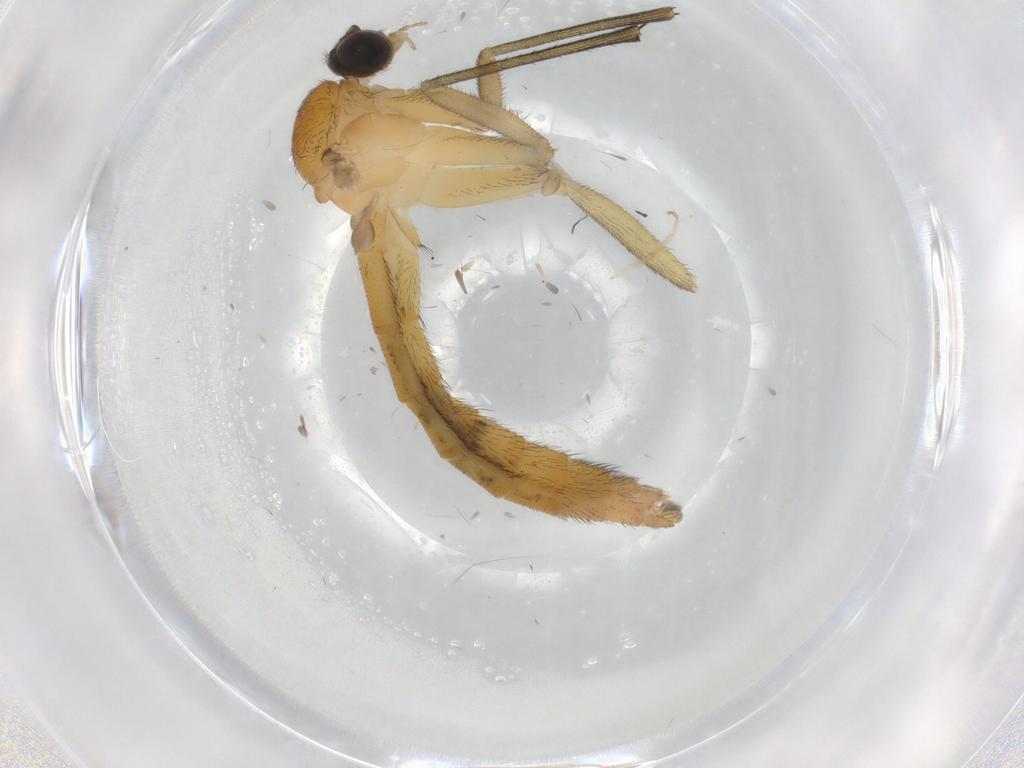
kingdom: Animalia
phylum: Arthropoda
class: Insecta
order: Diptera
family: Cecidomyiidae
